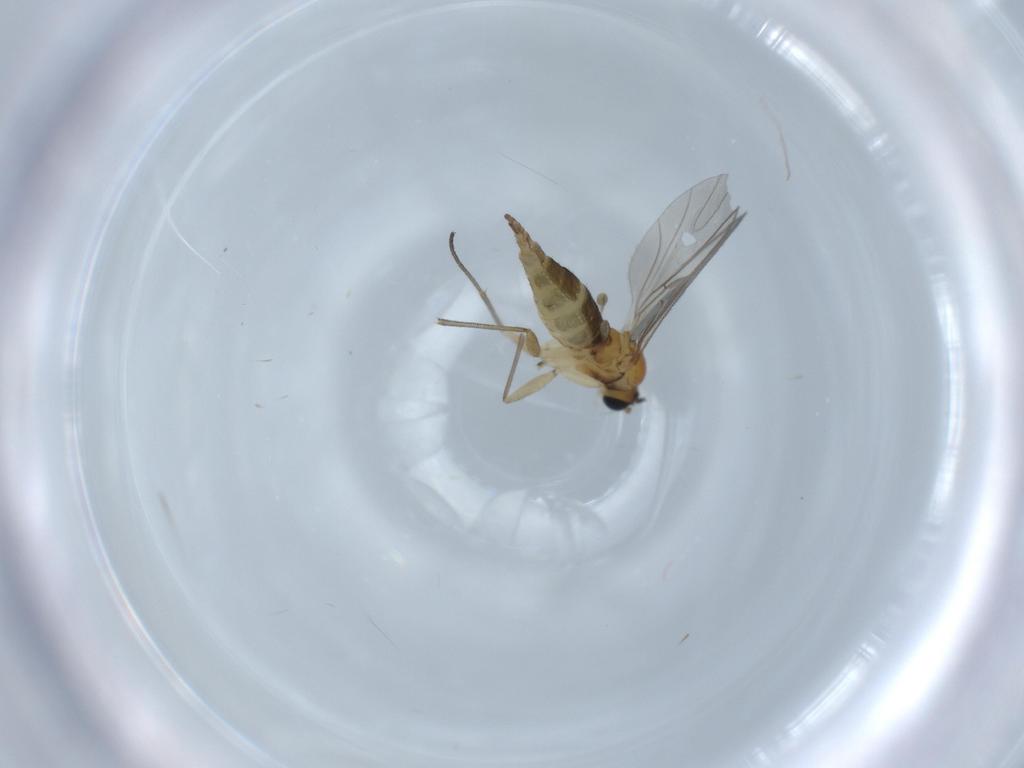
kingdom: Animalia
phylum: Arthropoda
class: Insecta
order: Diptera
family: Sciaridae
